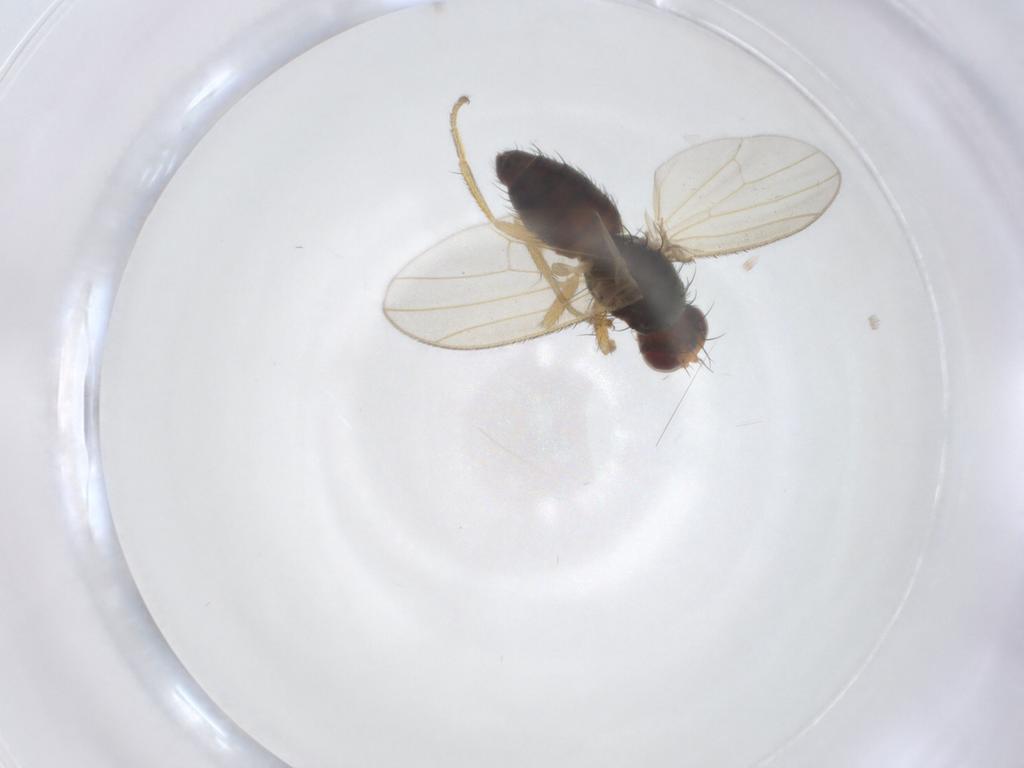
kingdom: Animalia
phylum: Arthropoda
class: Insecta
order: Diptera
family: Heleomyzidae
